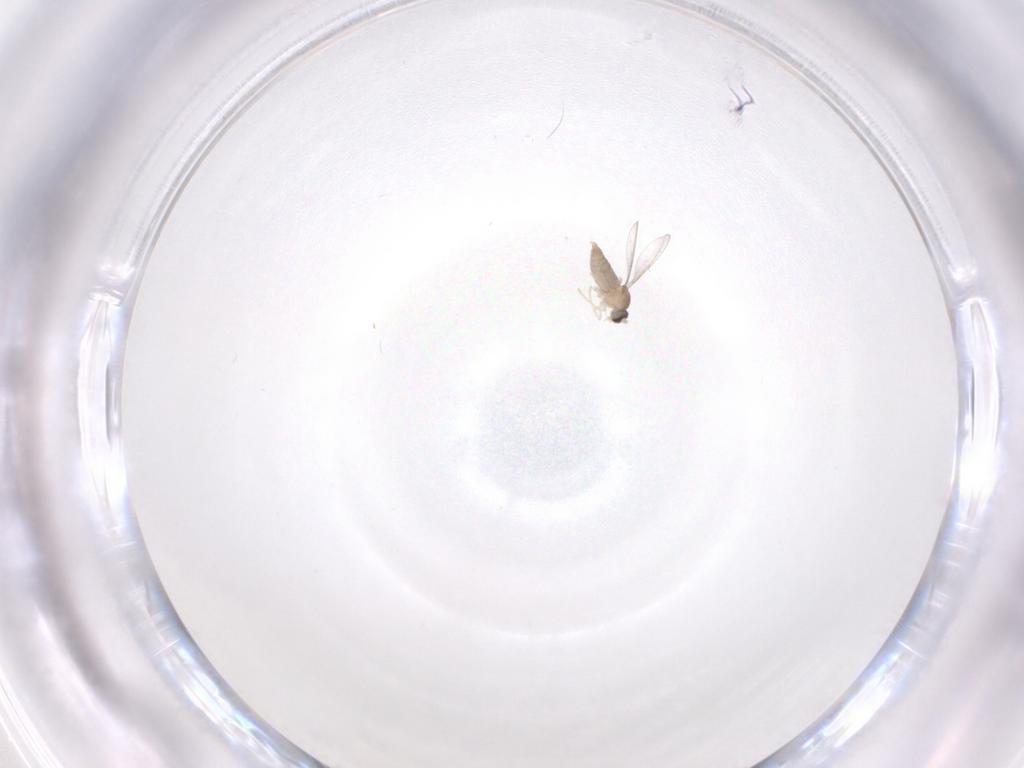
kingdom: Animalia
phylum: Arthropoda
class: Insecta
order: Diptera
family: Cecidomyiidae
